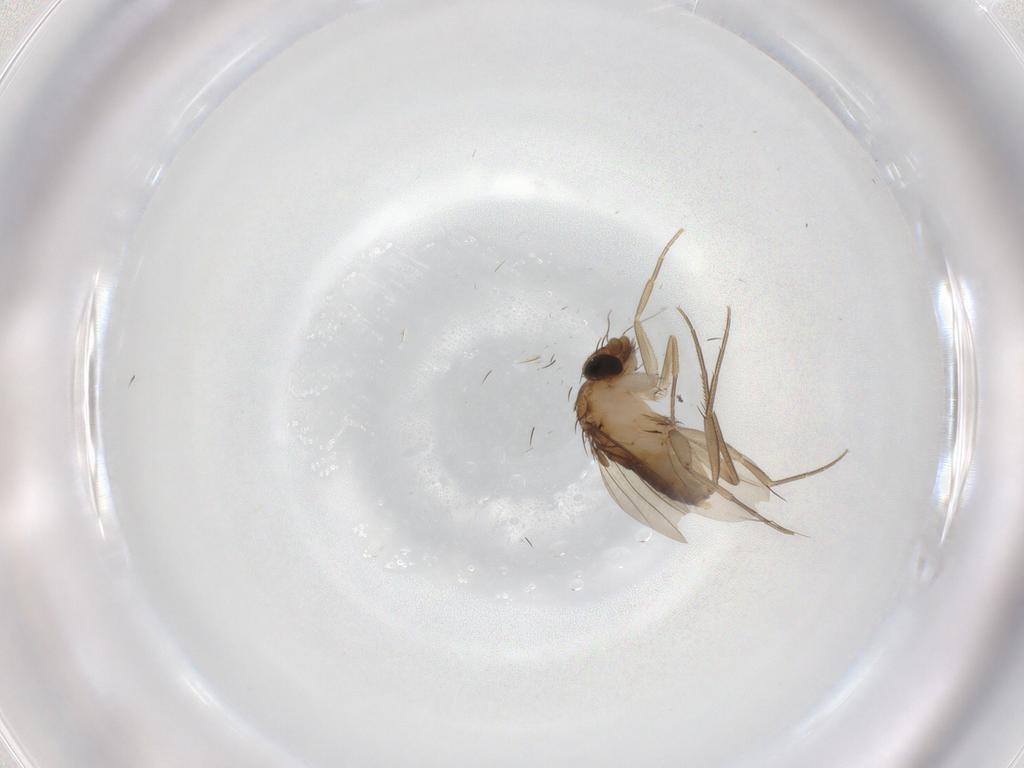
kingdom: Animalia
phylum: Arthropoda
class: Insecta
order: Diptera
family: Phoridae
